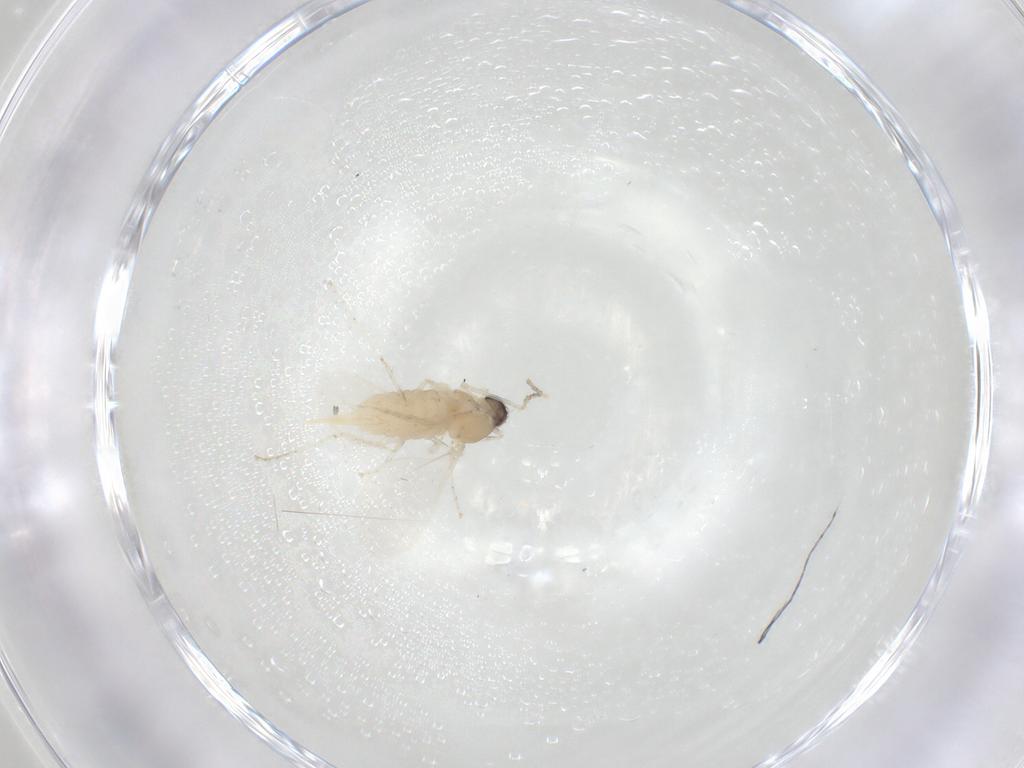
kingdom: Animalia
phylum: Arthropoda
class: Insecta
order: Diptera
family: Cecidomyiidae
